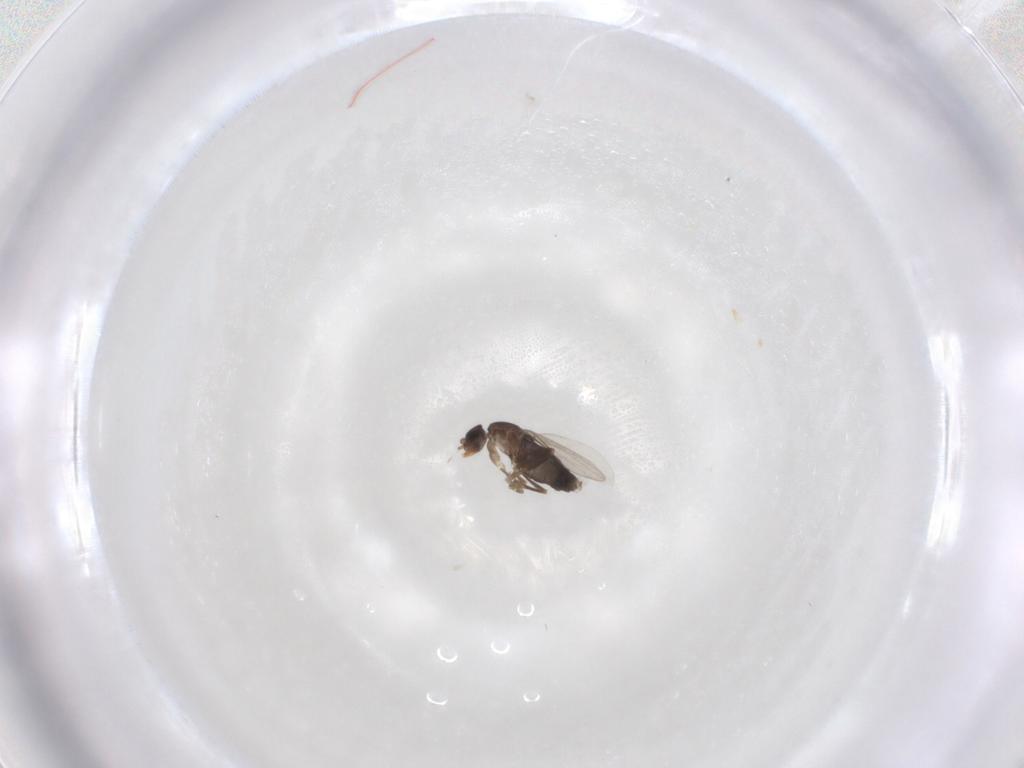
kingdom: Animalia
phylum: Arthropoda
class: Insecta
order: Diptera
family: Phoridae
